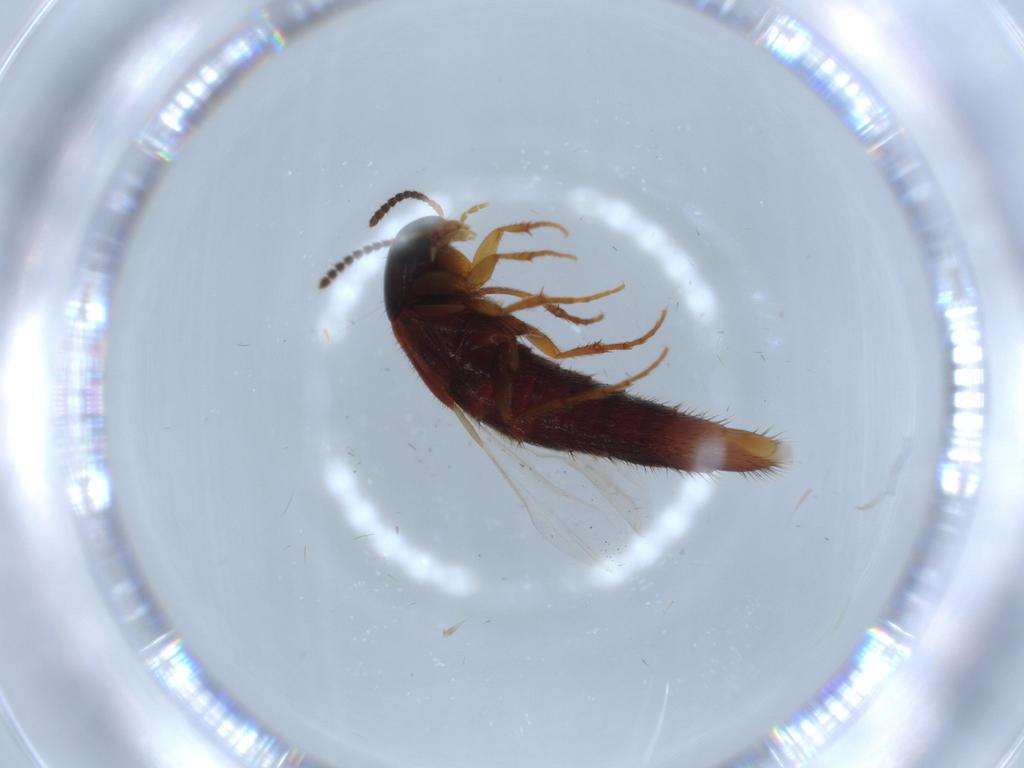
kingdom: Animalia
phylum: Arthropoda
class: Insecta
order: Coleoptera
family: Staphylinidae
